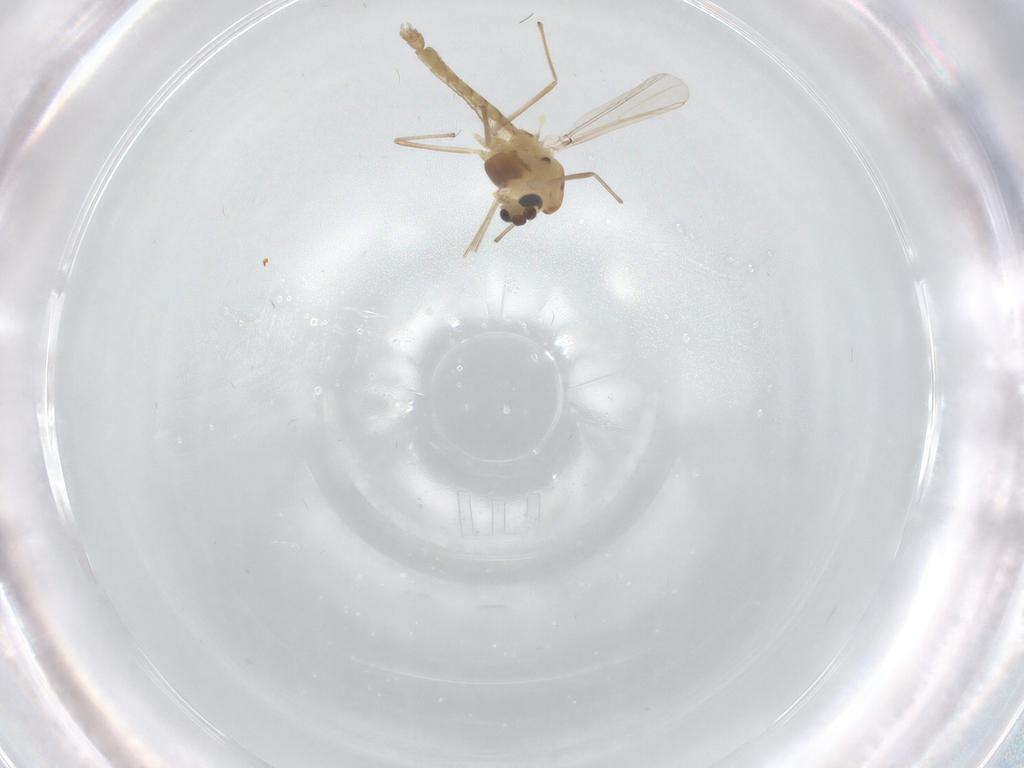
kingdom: Animalia
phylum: Arthropoda
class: Insecta
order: Diptera
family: Chironomidae
